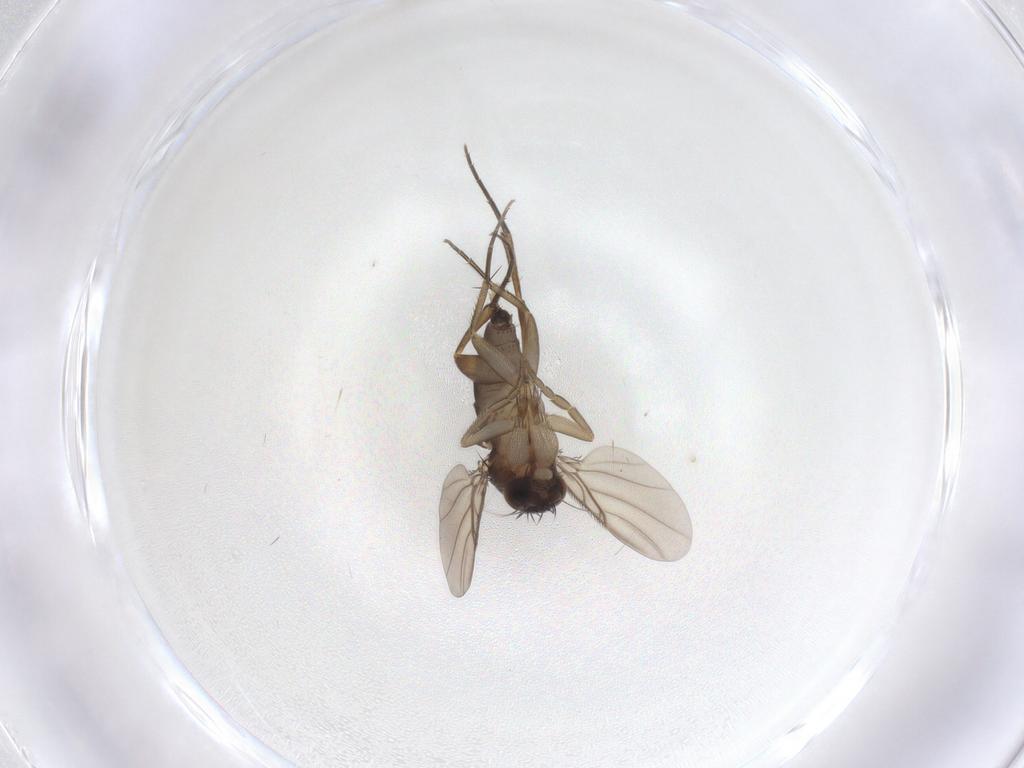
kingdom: Animalia
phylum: Arthropoda
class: Insecta
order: Diptera
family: Phoridae
